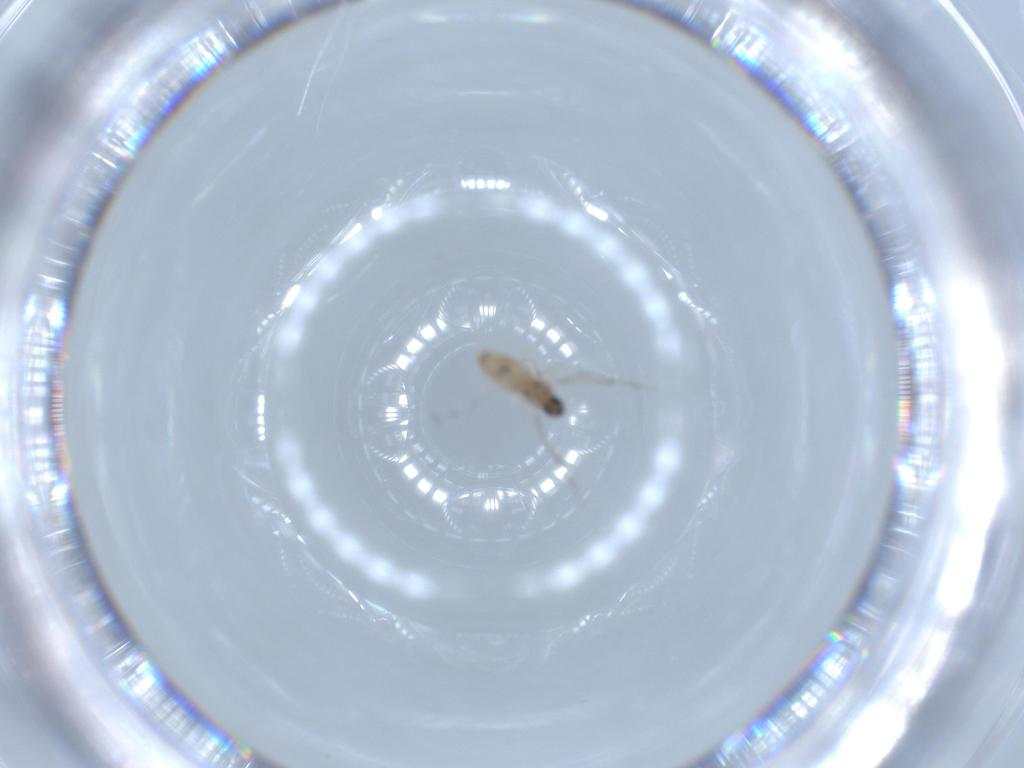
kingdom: Animalia
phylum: Arthropoda
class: Insecta
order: Diptera
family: Cecidomyiidae
